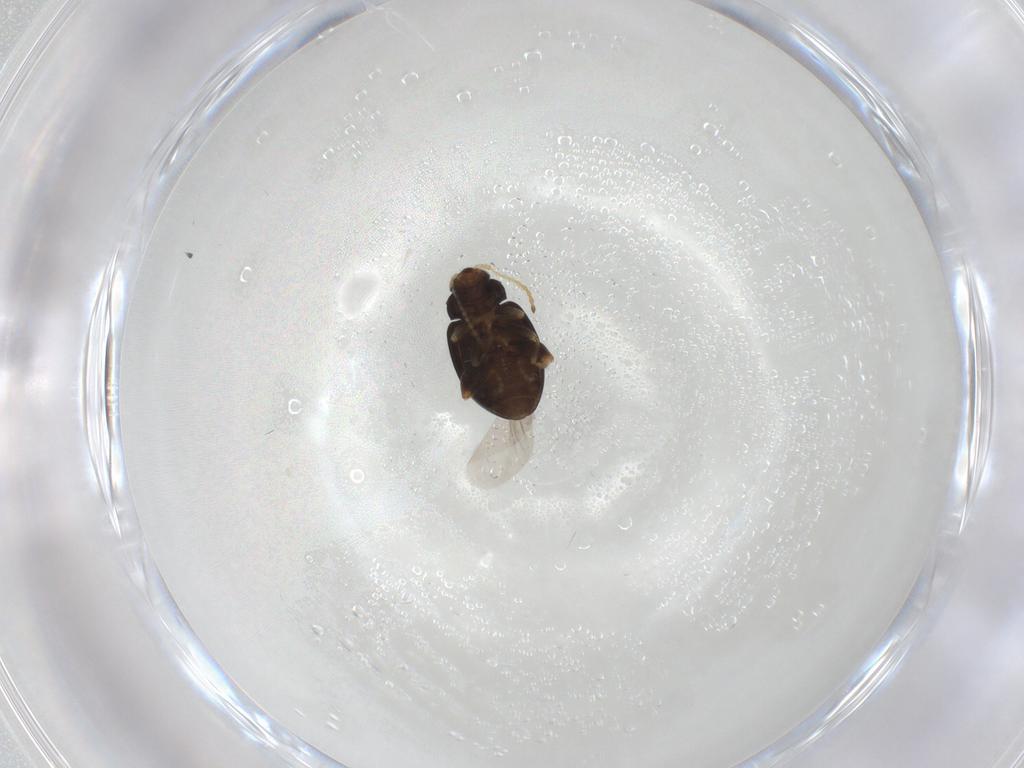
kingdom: Animalia
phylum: Arthropoda
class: Insecta
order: Coleoptera
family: Chrysomelidae
